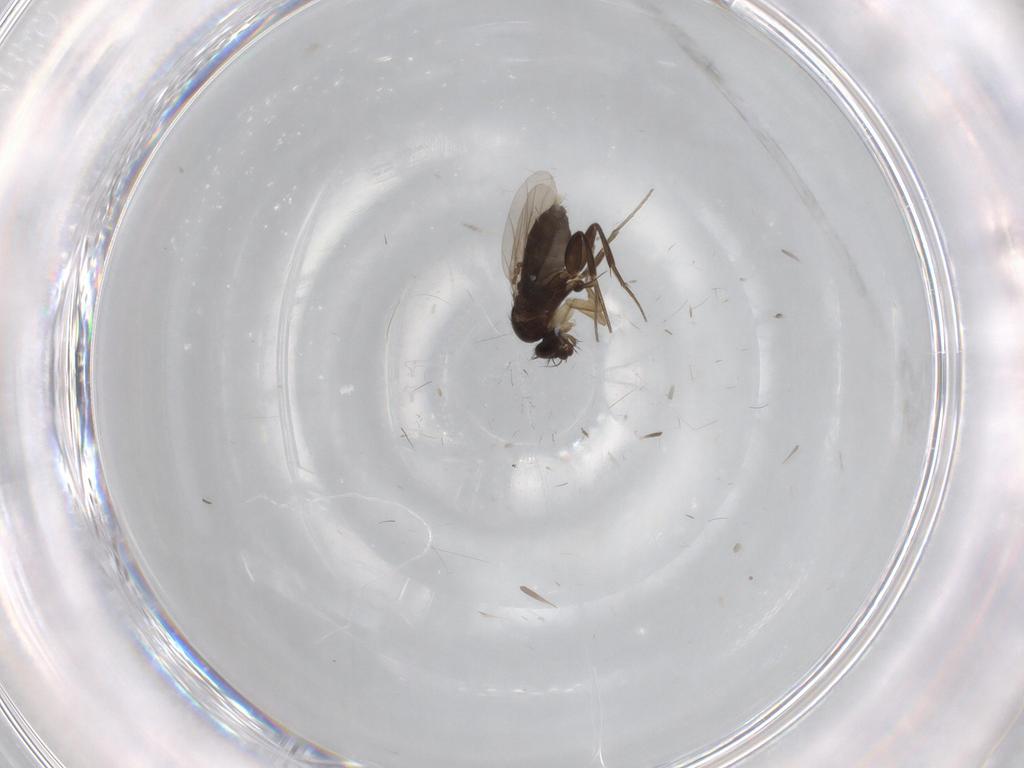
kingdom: Animalia
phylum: Arthropoda
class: Insecta
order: Diptera
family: Phoridae
